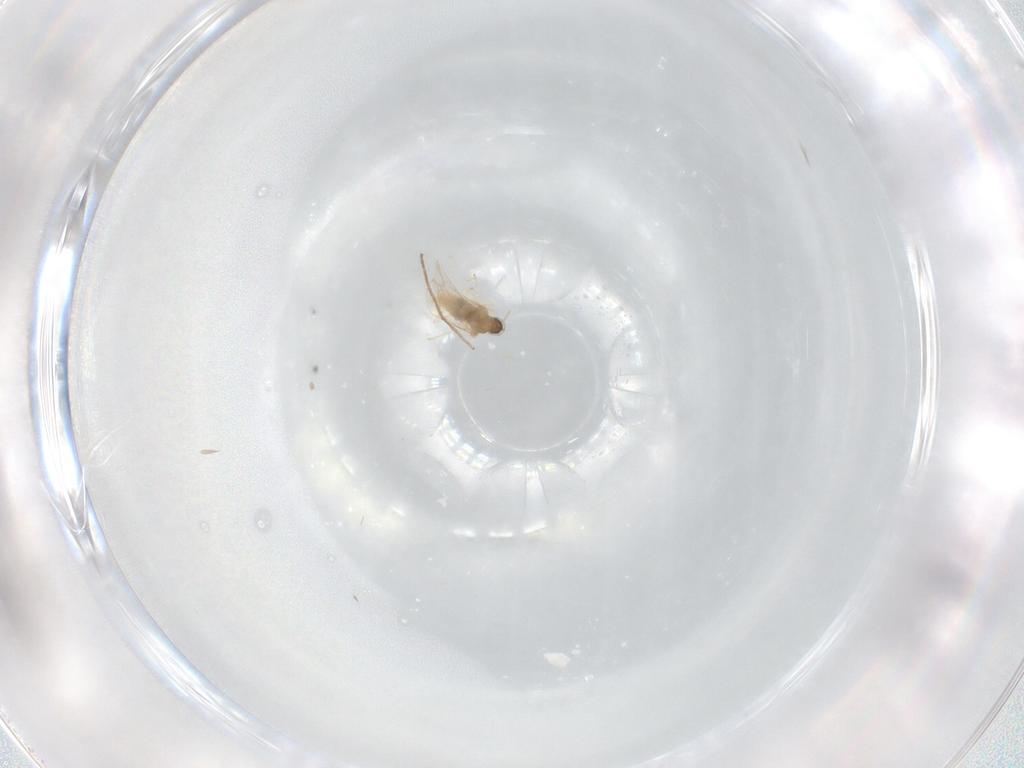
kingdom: Animalia
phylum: Arthropoda
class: Insecta
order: Diptera
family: Cecidomyiidae
